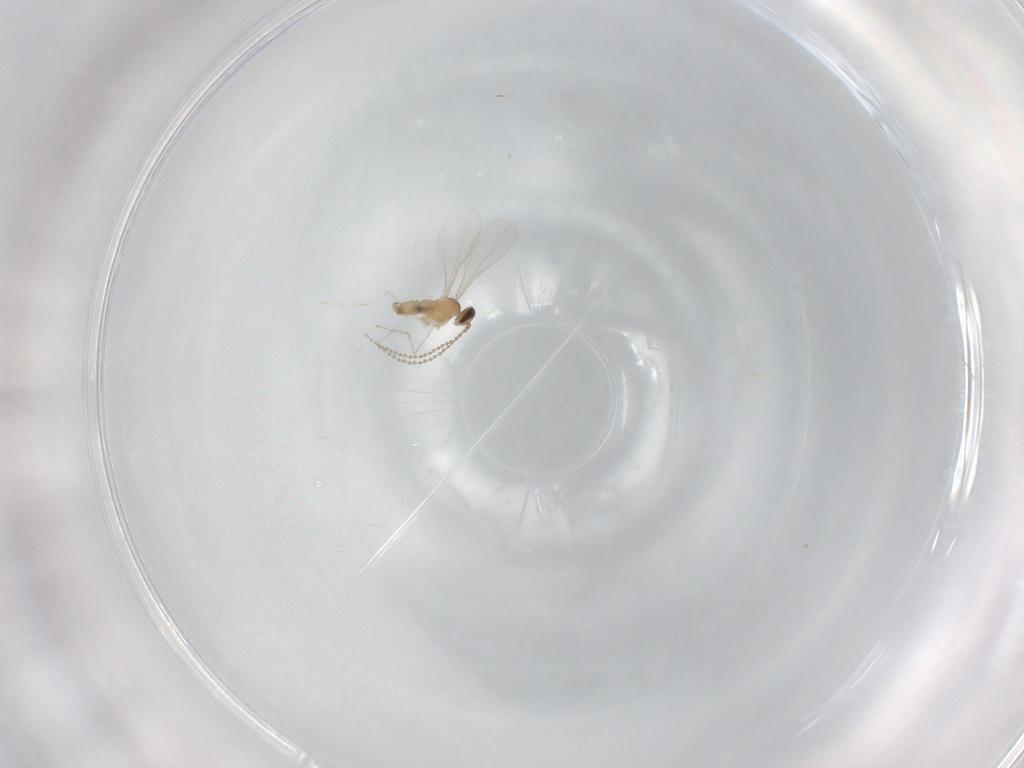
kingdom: Animalia
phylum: Arthropoda
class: Insecta
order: Diptera
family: Cecidomyiidae
